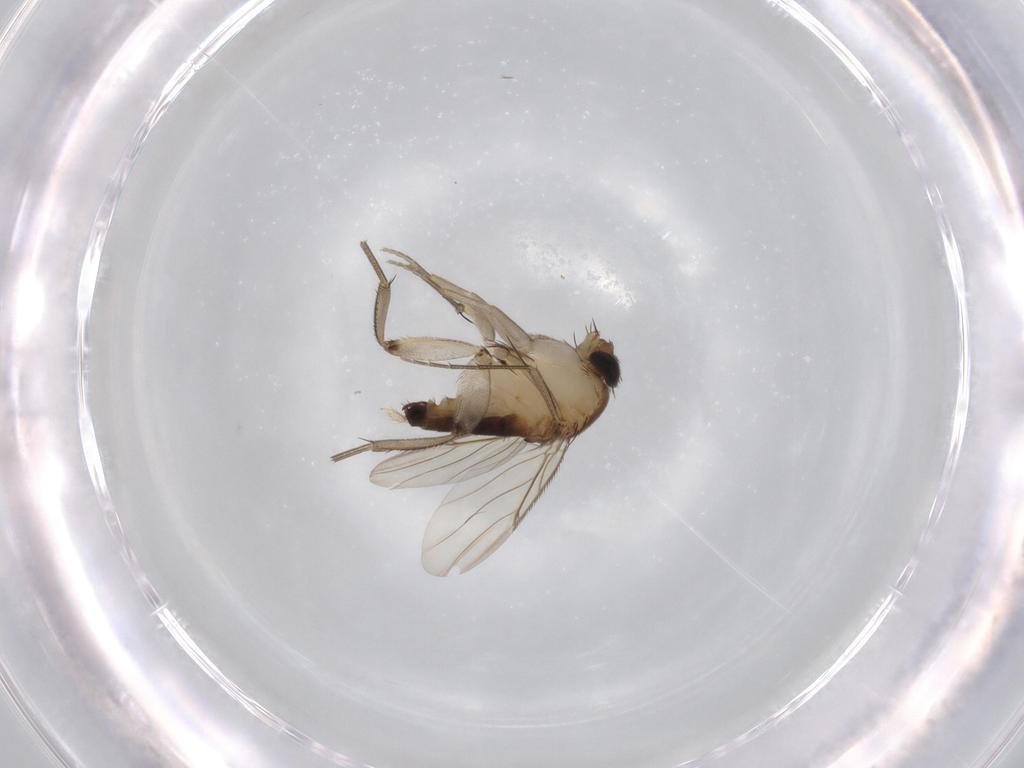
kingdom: Animalia
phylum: Arthropoda
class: Insecta
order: Diptera
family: Phoridae
